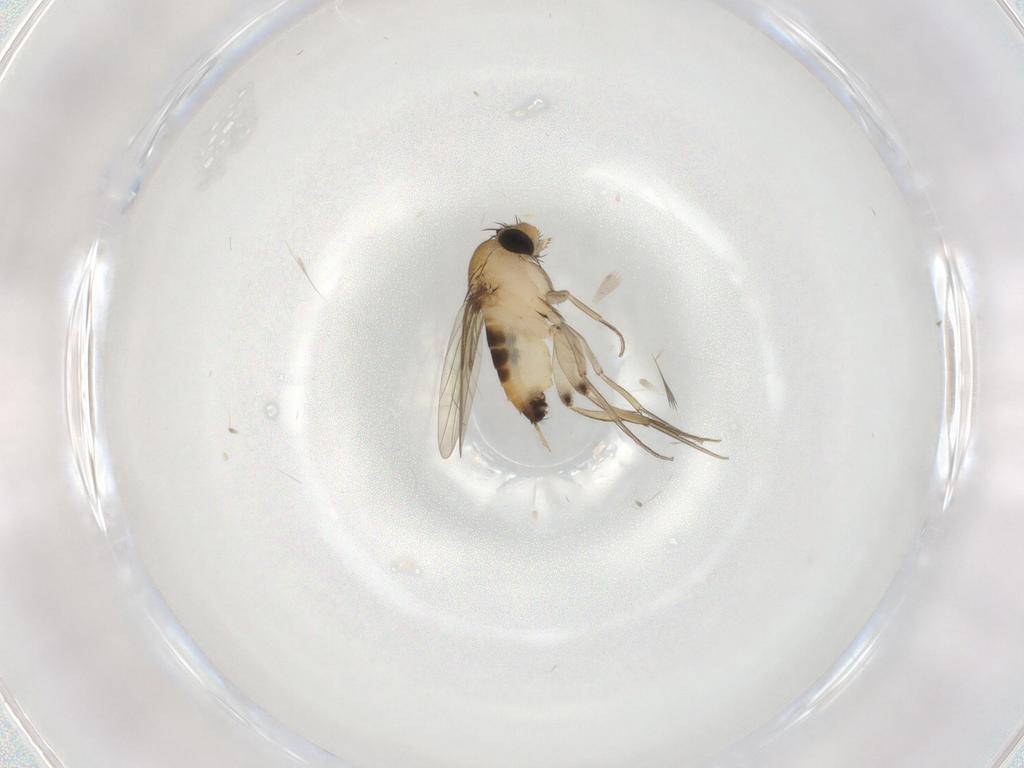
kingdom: Animalia
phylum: Arthropoda
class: Insecta
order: Diptera
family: Phoridae
